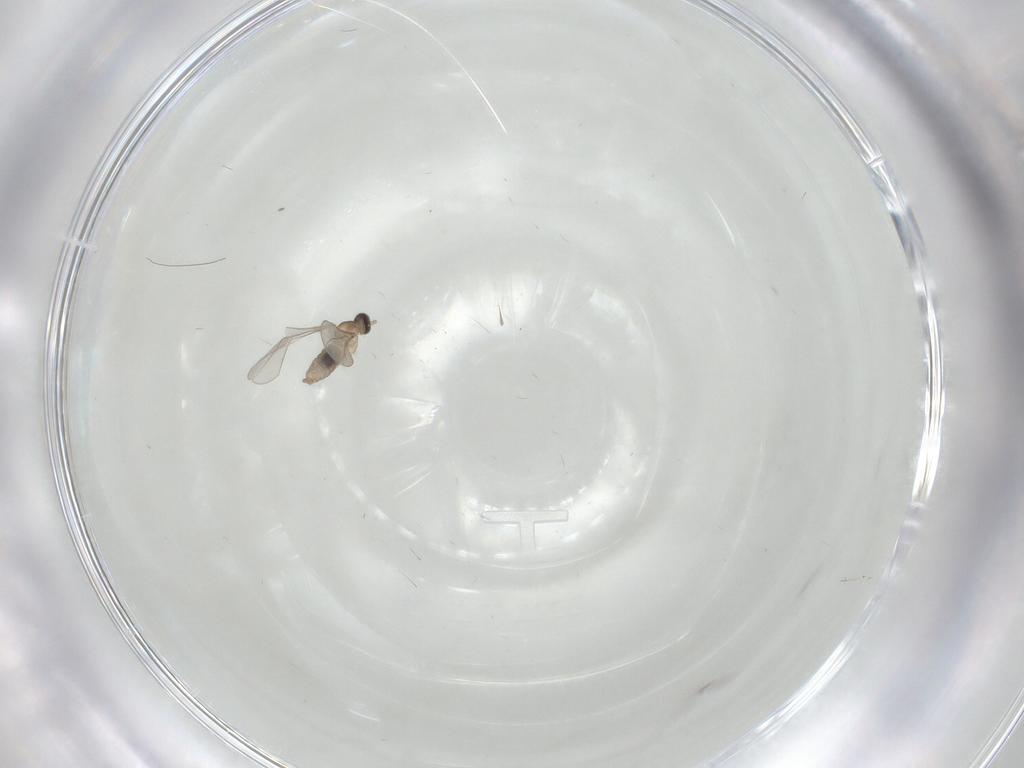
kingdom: Animalia
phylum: Arthropoda
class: Insecta
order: Diptera
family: Cecidomyiidae
